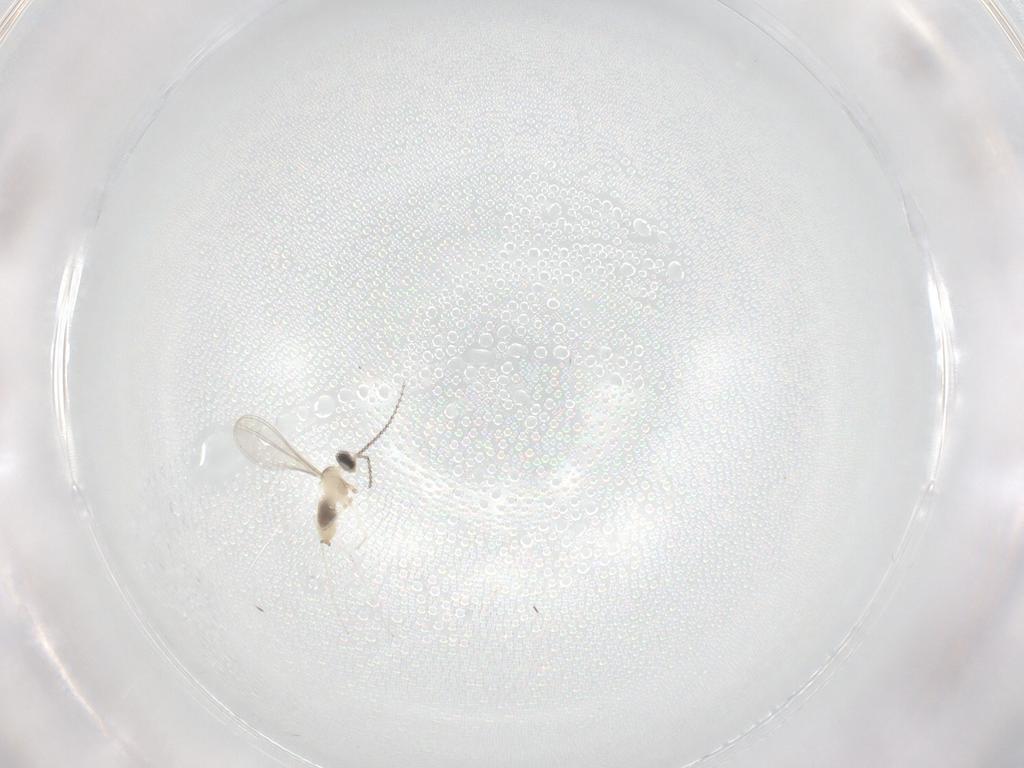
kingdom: Animalia
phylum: Arthropoda
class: Insecta
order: Diptera
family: Cecidomyiidae
